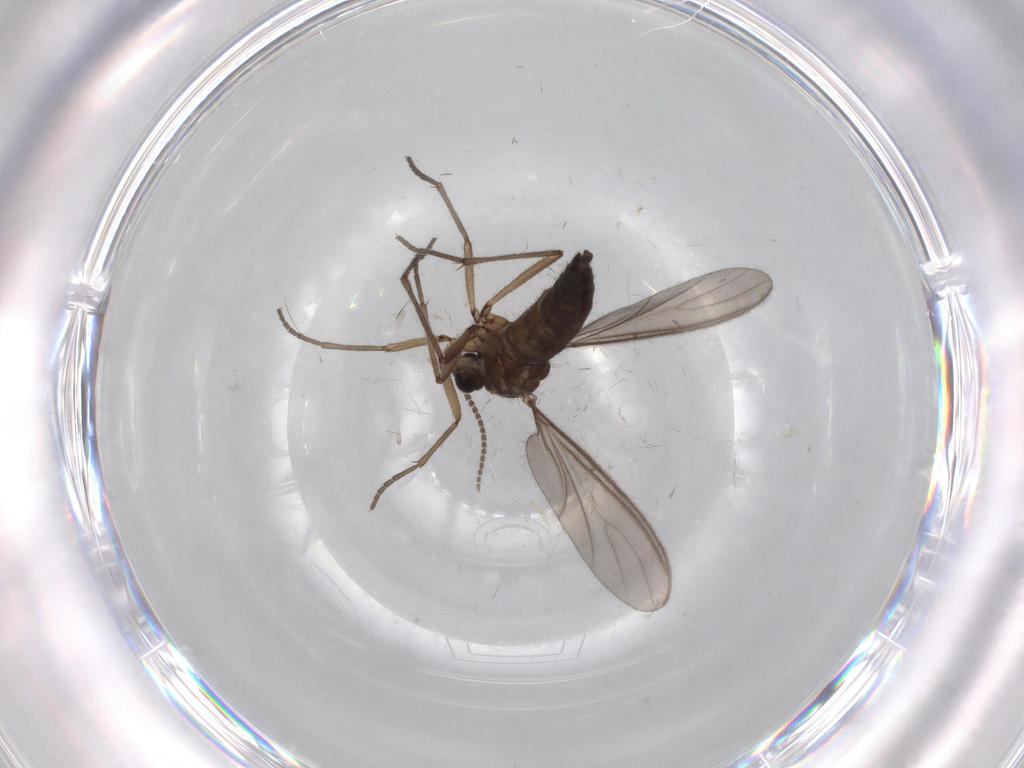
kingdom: Animalia
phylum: Arthropoda
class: Insecta
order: Diptera
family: Sciaridae
